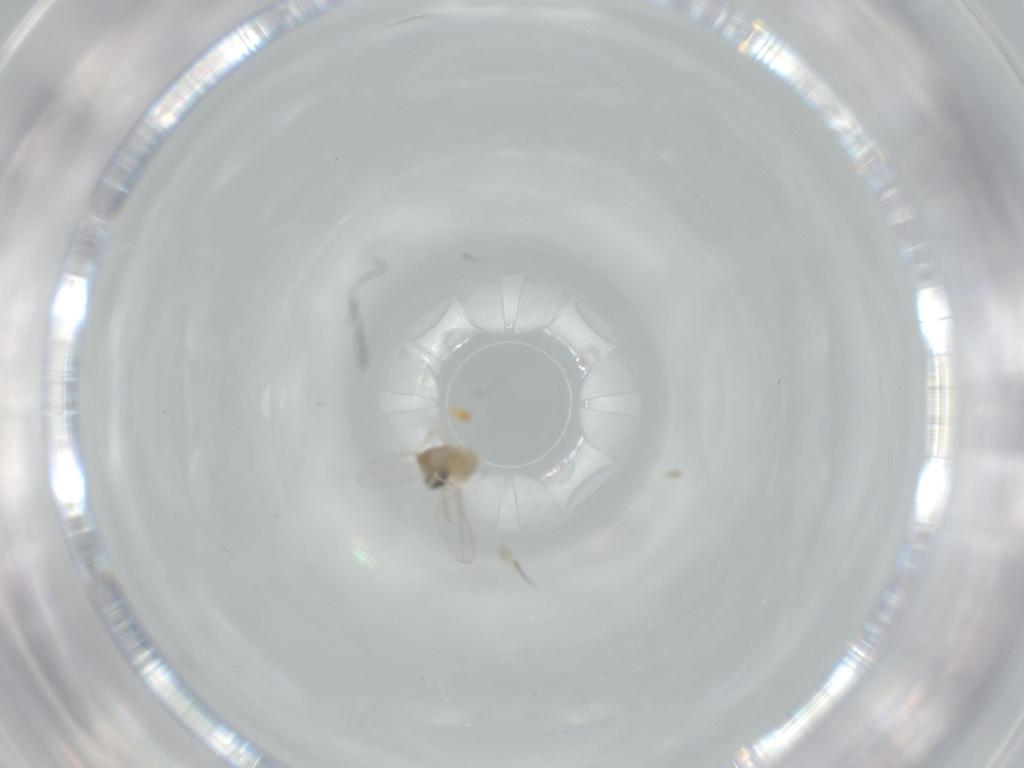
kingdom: Animalia
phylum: Arthropoda
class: Insecta
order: Diptera
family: Cecidomyiidae
